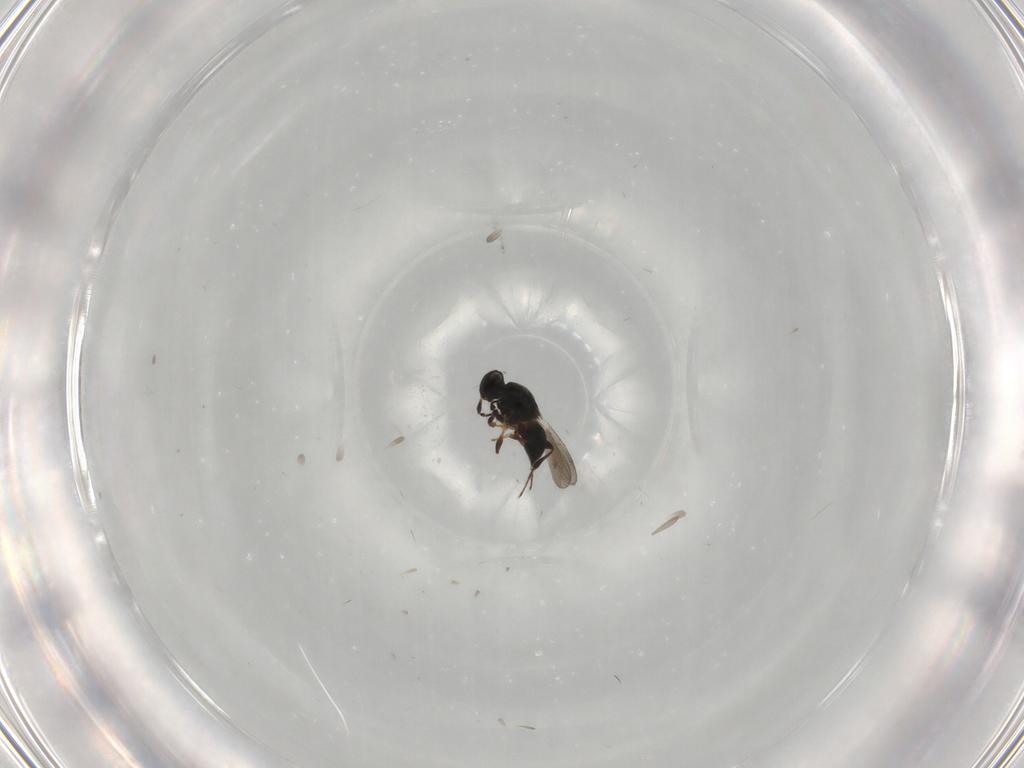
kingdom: Animalia
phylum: Arthropoda
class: Insecta
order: Hymenoptera
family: Platygastridae
